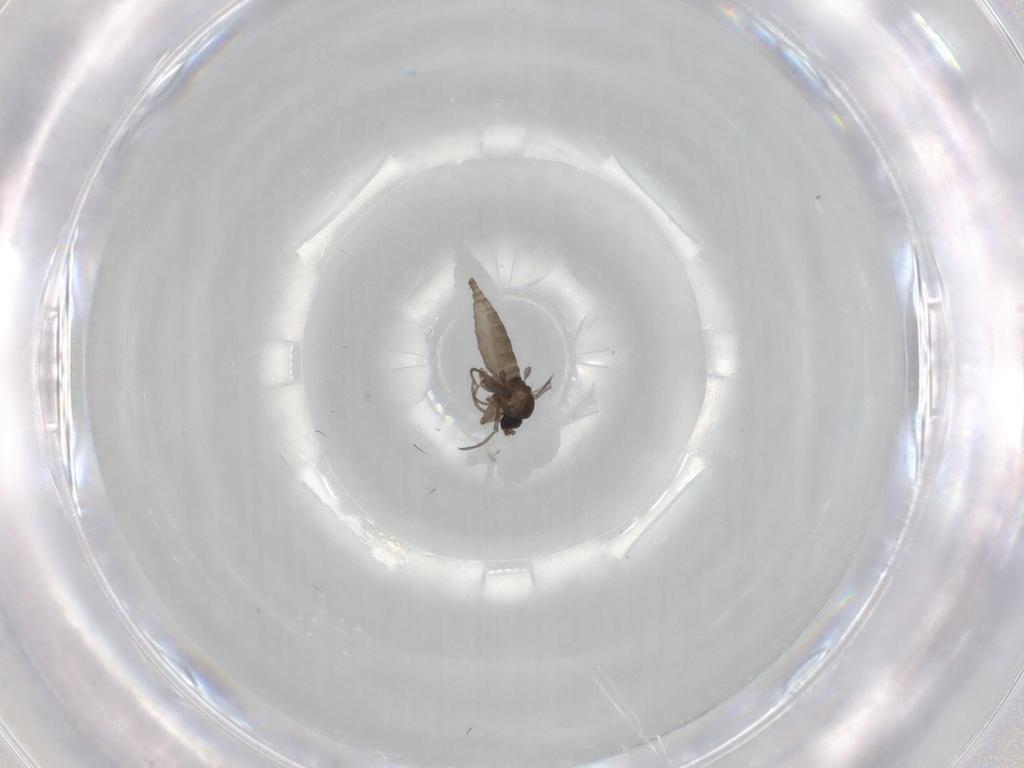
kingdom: Animalia
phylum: Arthropoda
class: Insecta
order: Diptera
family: Sciaridae
